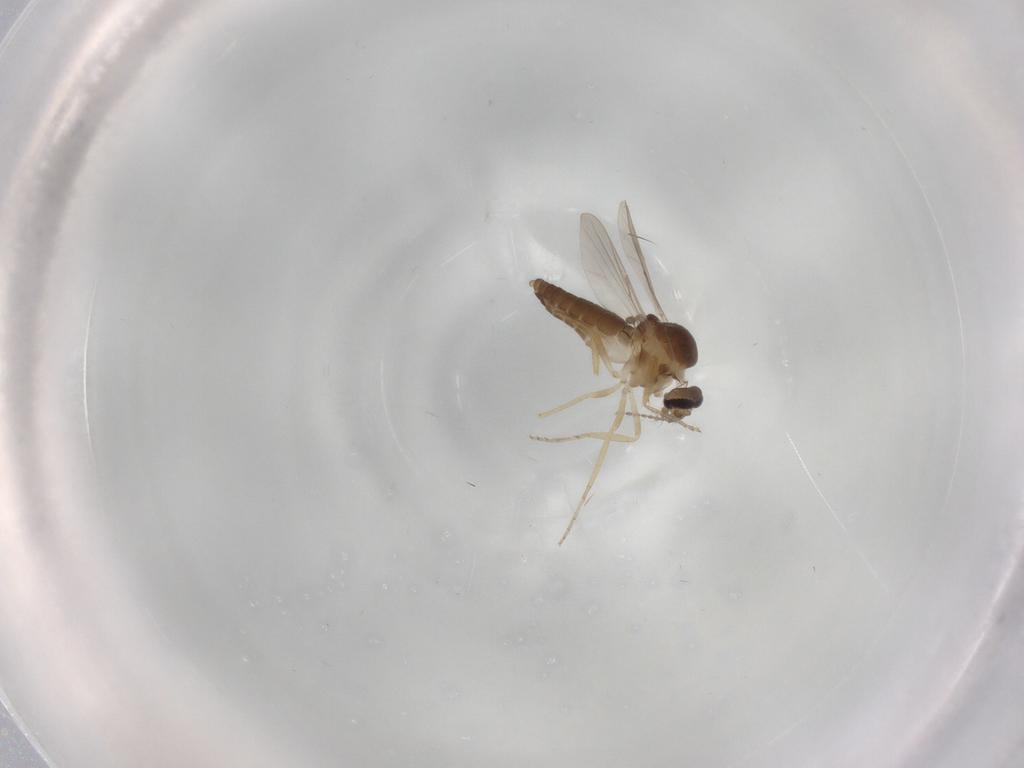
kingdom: Animalia
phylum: Arthropoda
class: Insecta
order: Diptera
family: Ceratopogonidae
